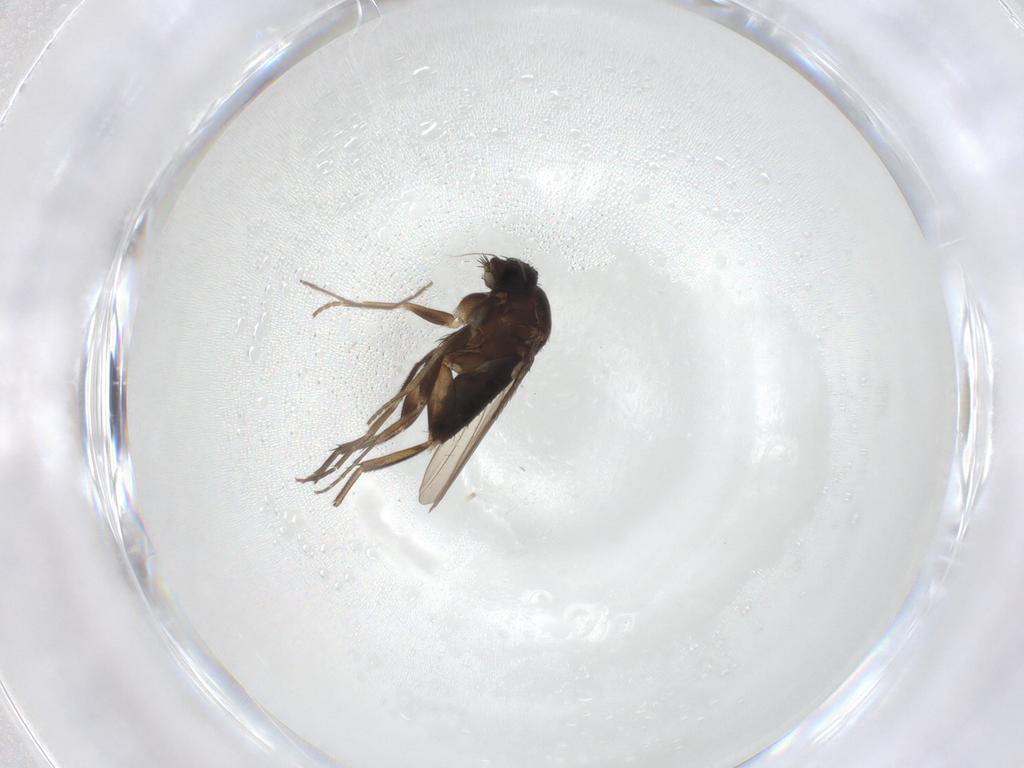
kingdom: Animalia
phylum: Arthropoda
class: Insecta
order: Diptera
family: Phoridae
